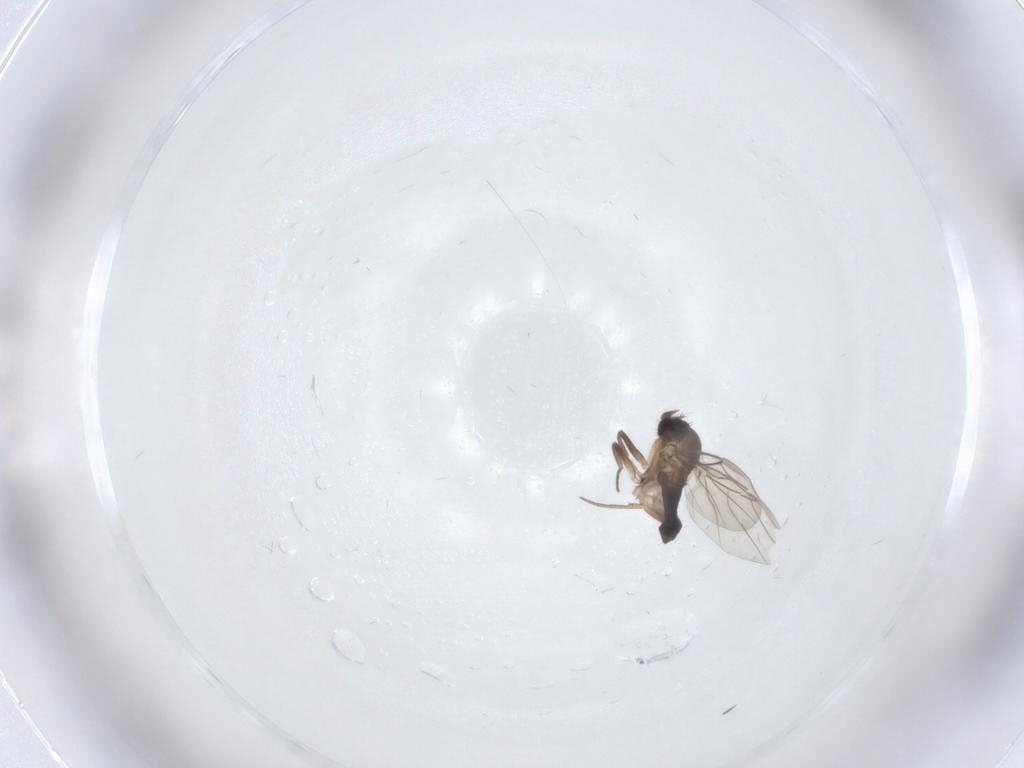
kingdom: Animalia
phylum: Arthropoda
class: Insecta
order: Diptera
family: Phoridae
